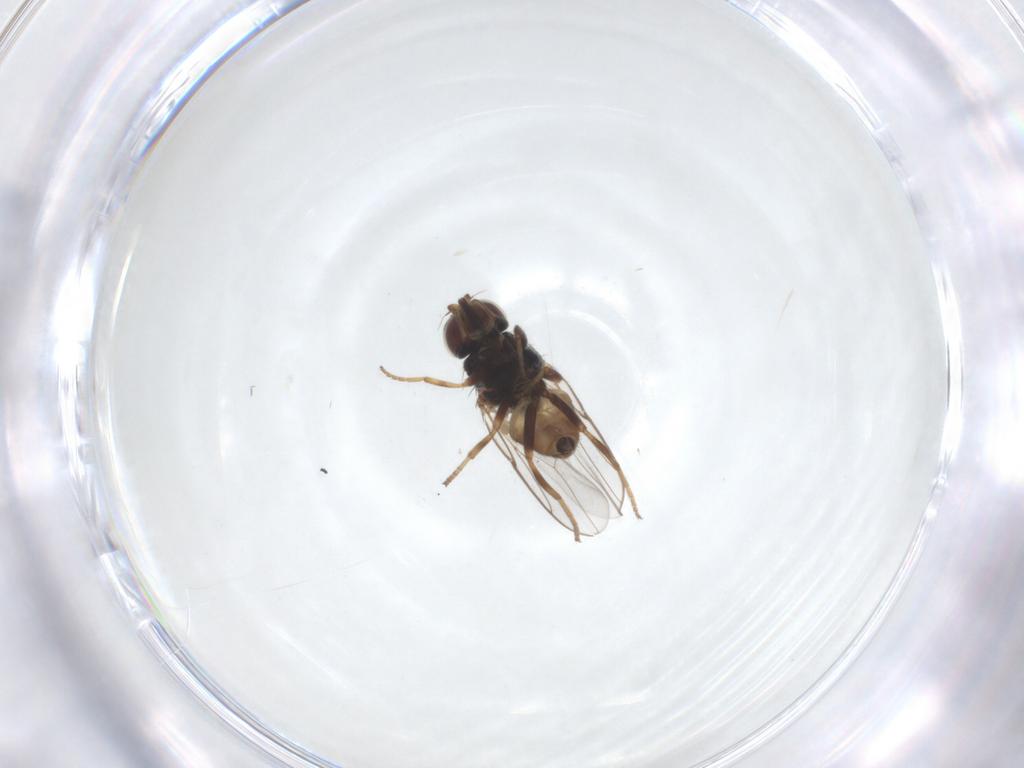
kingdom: Animalia
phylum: Arthropoda
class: Insecta
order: Diptera
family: Chloropidae
